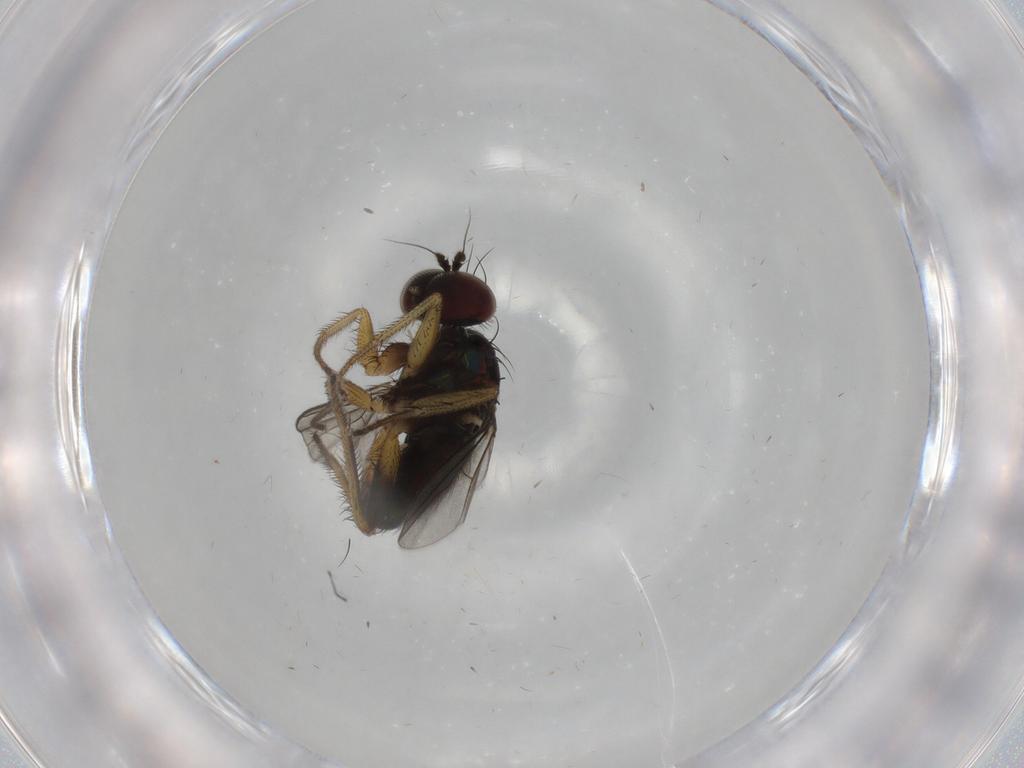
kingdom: Animalia
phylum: Arthropoda
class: Insecta
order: Diptera
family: Dolichopodidae
